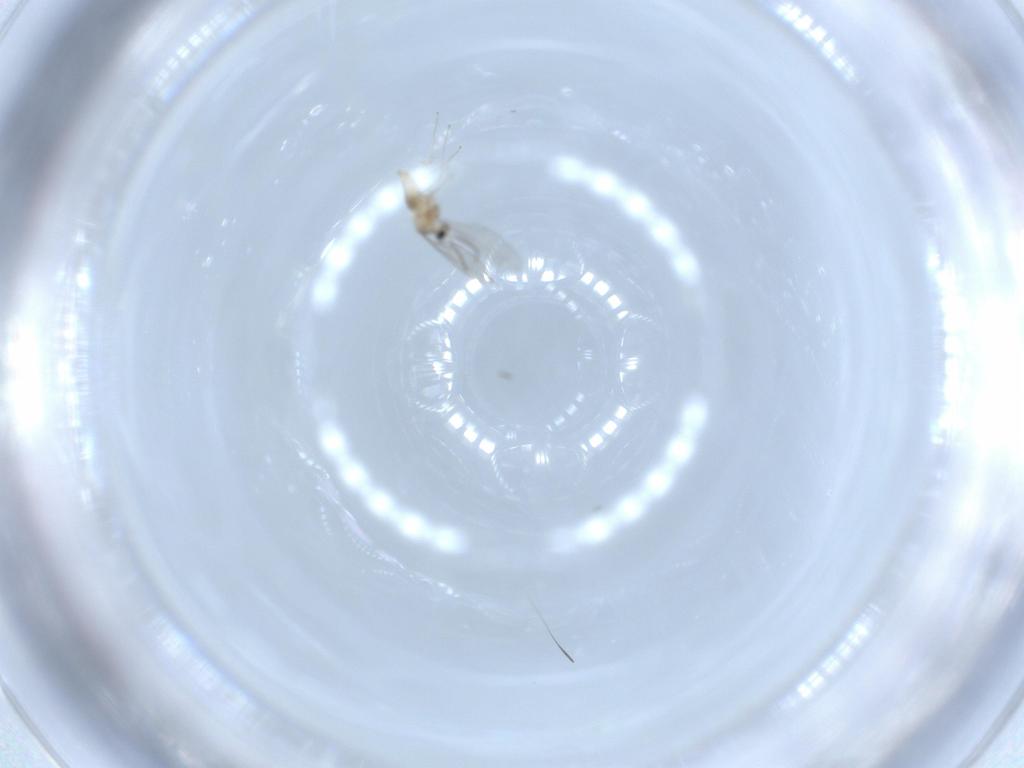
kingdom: Animalia
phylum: Arthropoda
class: Insecta
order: Diptera
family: Cecidomyiidae
